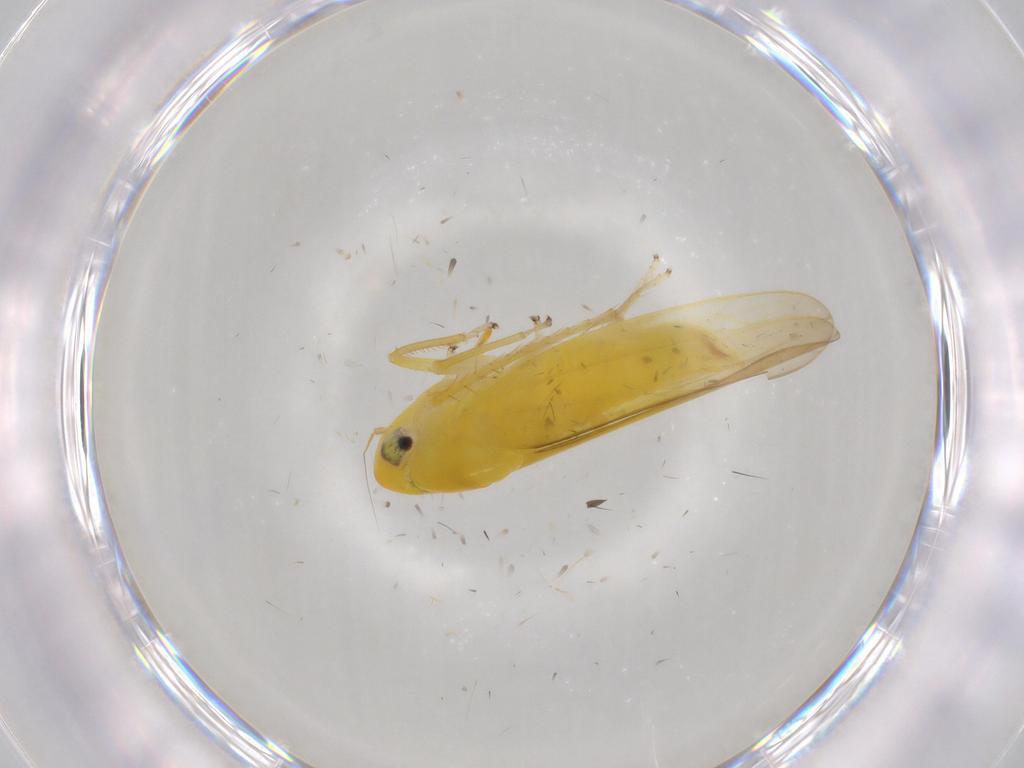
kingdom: Animalia
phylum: Arthropoda
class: Insecta
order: Hemiptera
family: Cicadellidae
